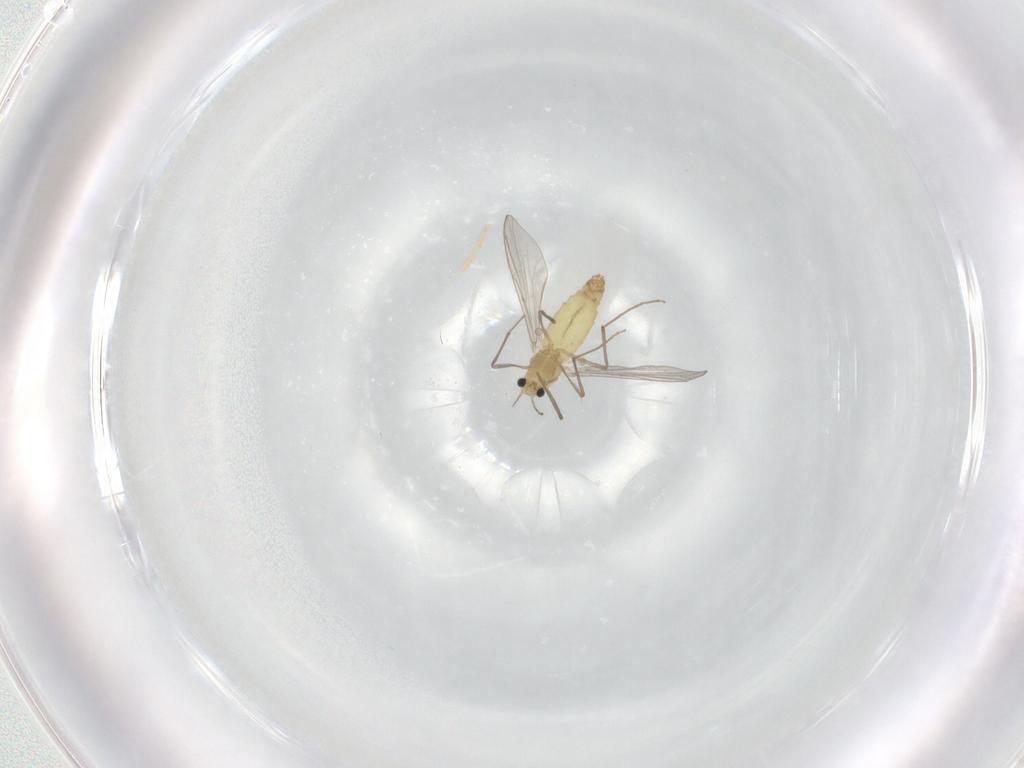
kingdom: Animalia
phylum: Arthropoda
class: Insecta
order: Diptera
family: Chironomidae
